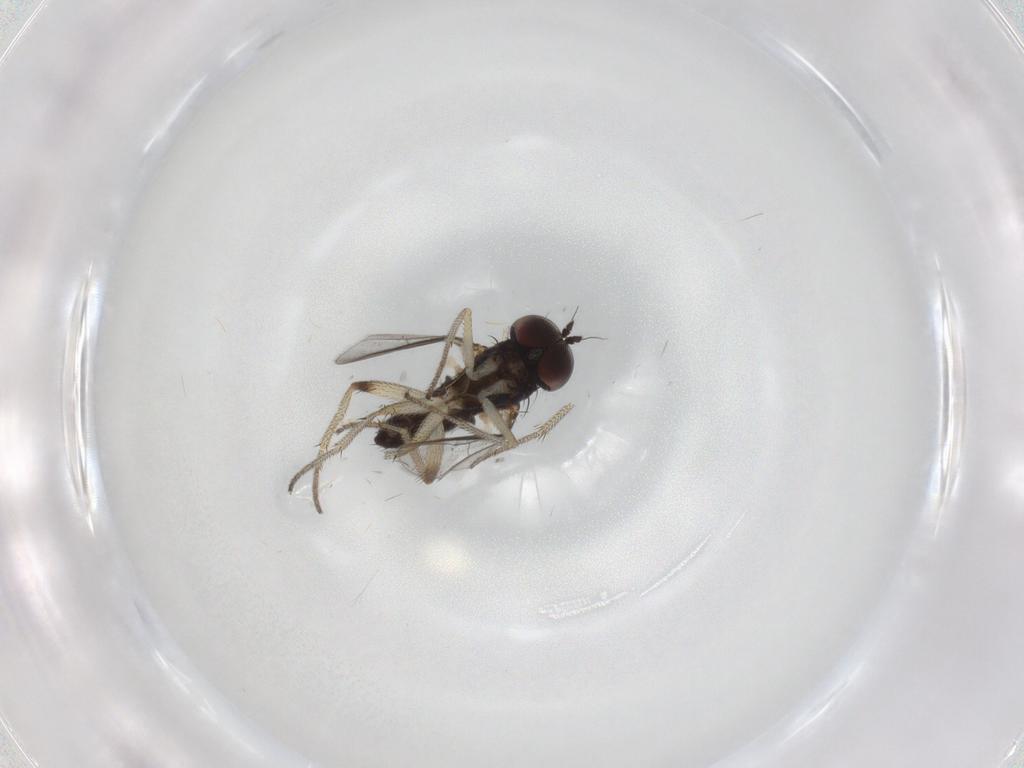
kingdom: Animalia
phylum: Arthropoda
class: Insecta
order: Diptera
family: Dolichopodidae
